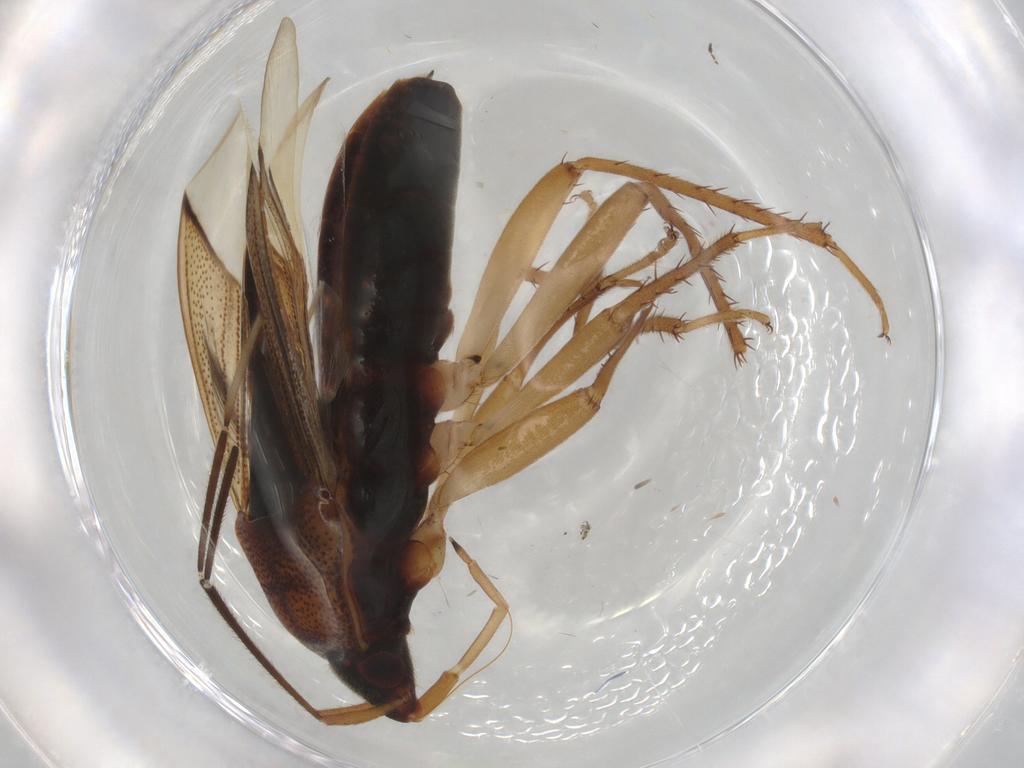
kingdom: Animalia
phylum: Arthropoda
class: Insecta
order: Hemiptera
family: Rhyparochromidae
